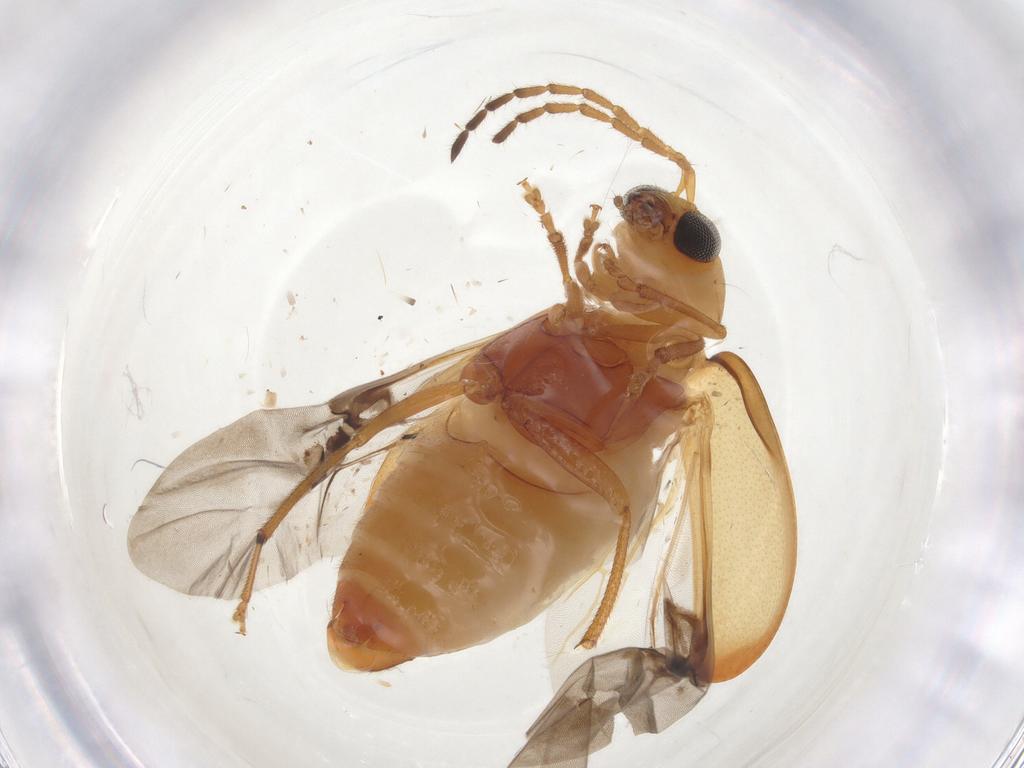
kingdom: Animalia
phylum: Arthropoda
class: Insecta
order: Coleoptera
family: Chrysomelidae
